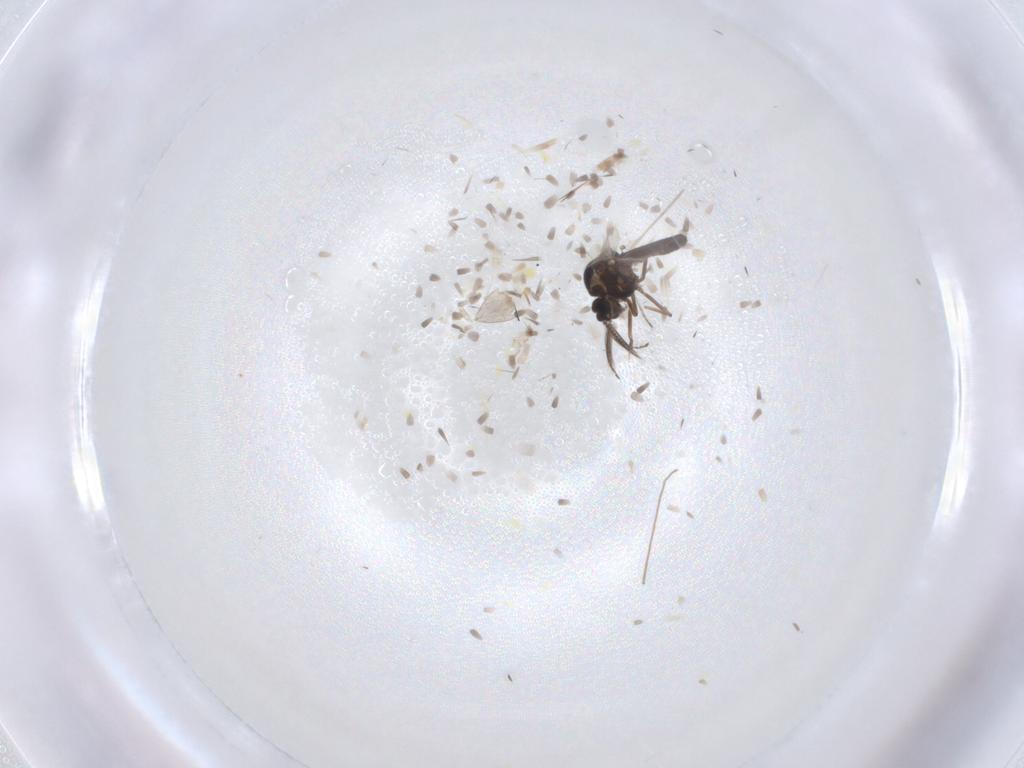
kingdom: Animalia
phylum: Arthropoda
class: Insecta
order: Diptera
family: Ceratopogonidae
